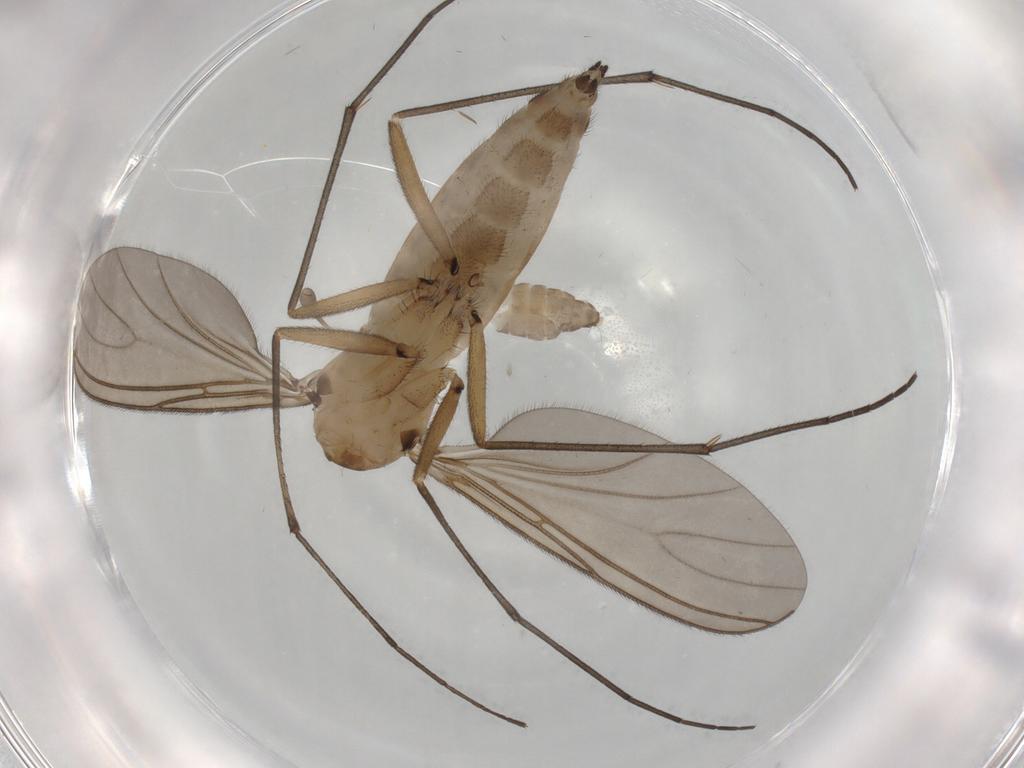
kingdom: Animalia
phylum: Arthropoda
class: Insecta
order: Diptera
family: Chironomidae
